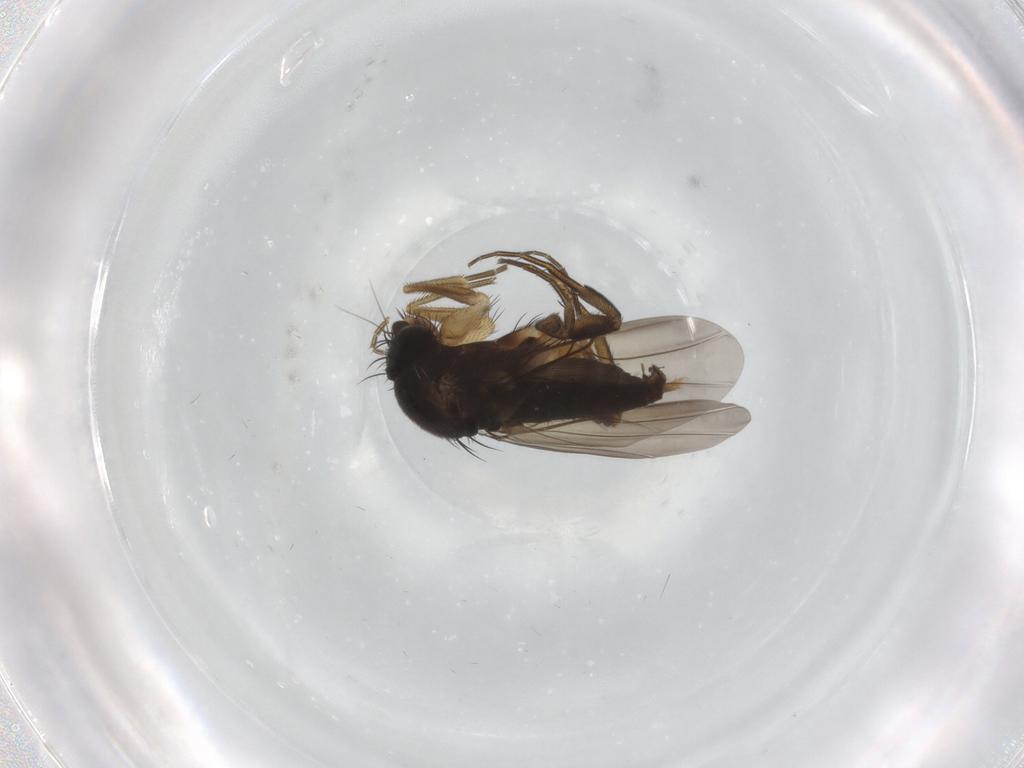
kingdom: Animalia
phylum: Arthropoda
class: Insecta
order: Diptera
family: Phoridae
